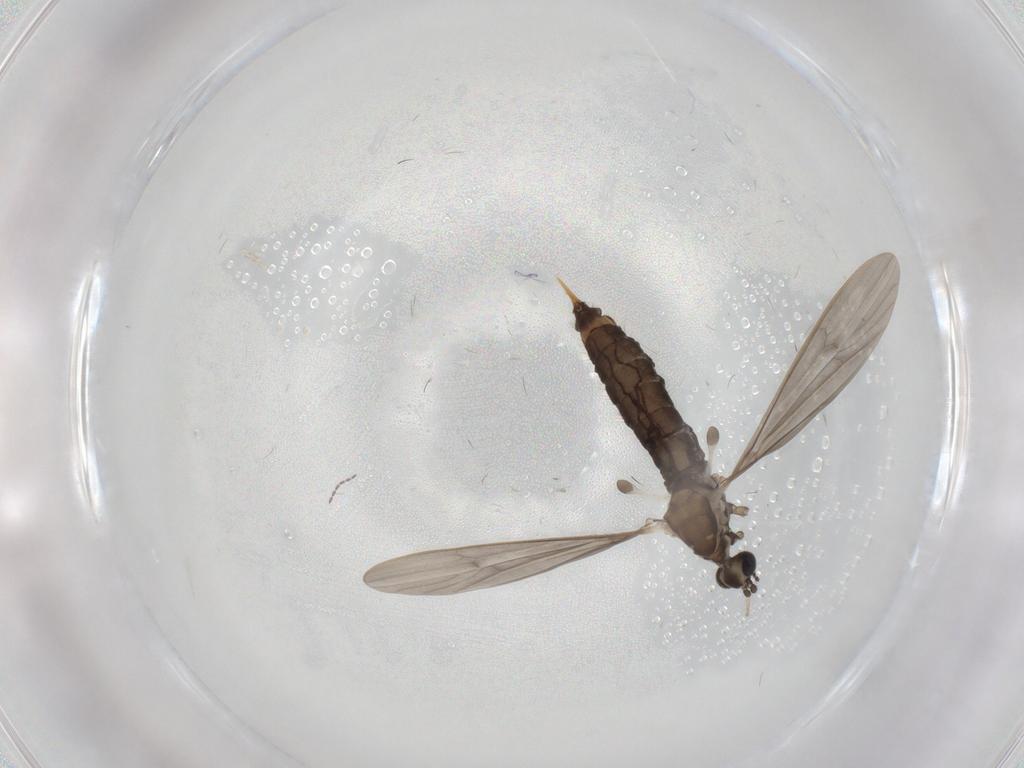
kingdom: Animalia
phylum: Arthropoda
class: Insecta
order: Diptera
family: Limoniidae
